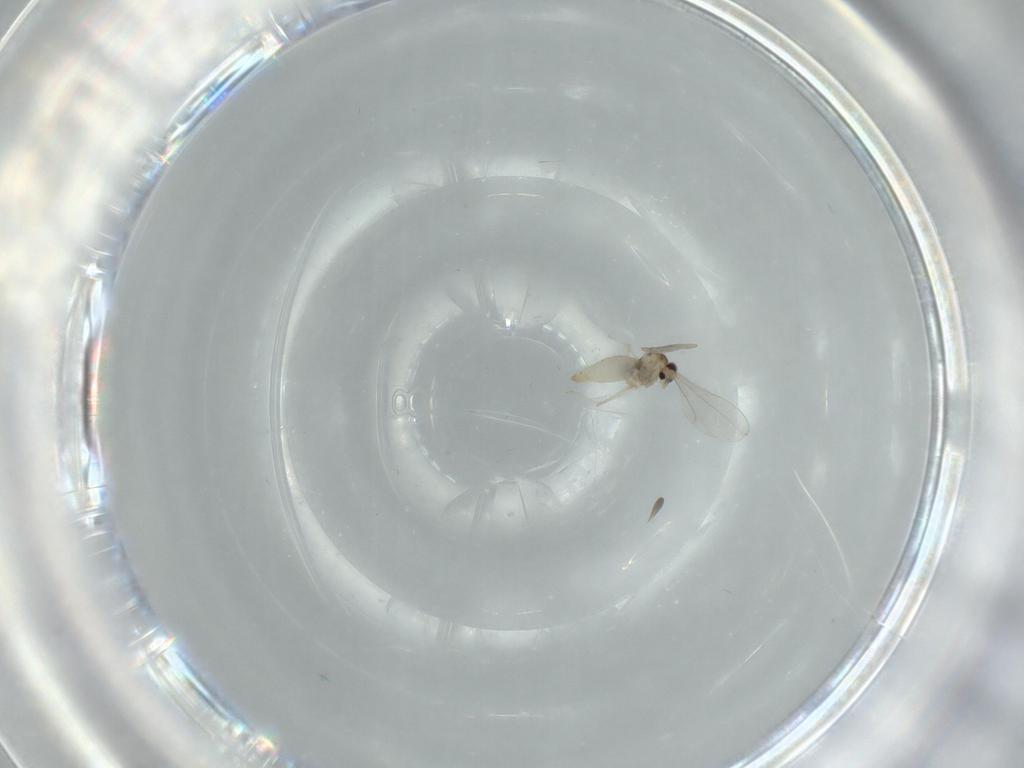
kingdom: Animalia
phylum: Arthropoda
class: Insecta
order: Diptera
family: Cecidomyiidae
